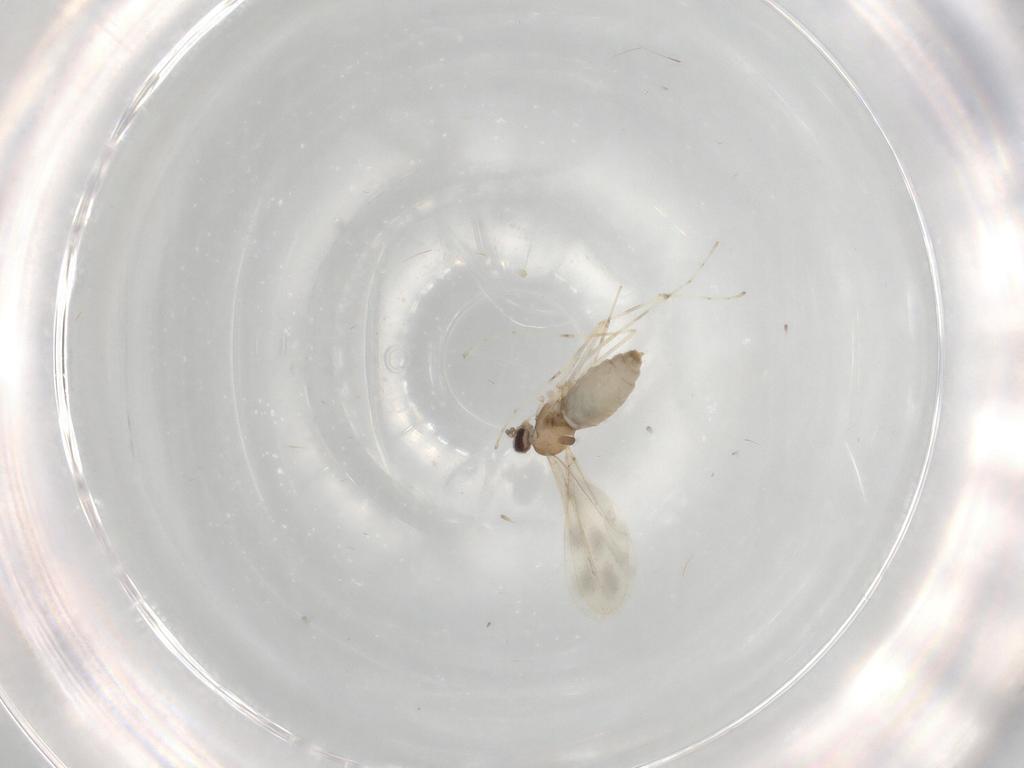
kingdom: Animalia
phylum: Arthropoda
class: Insecta
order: Diptera
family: Cecidomyiidae
